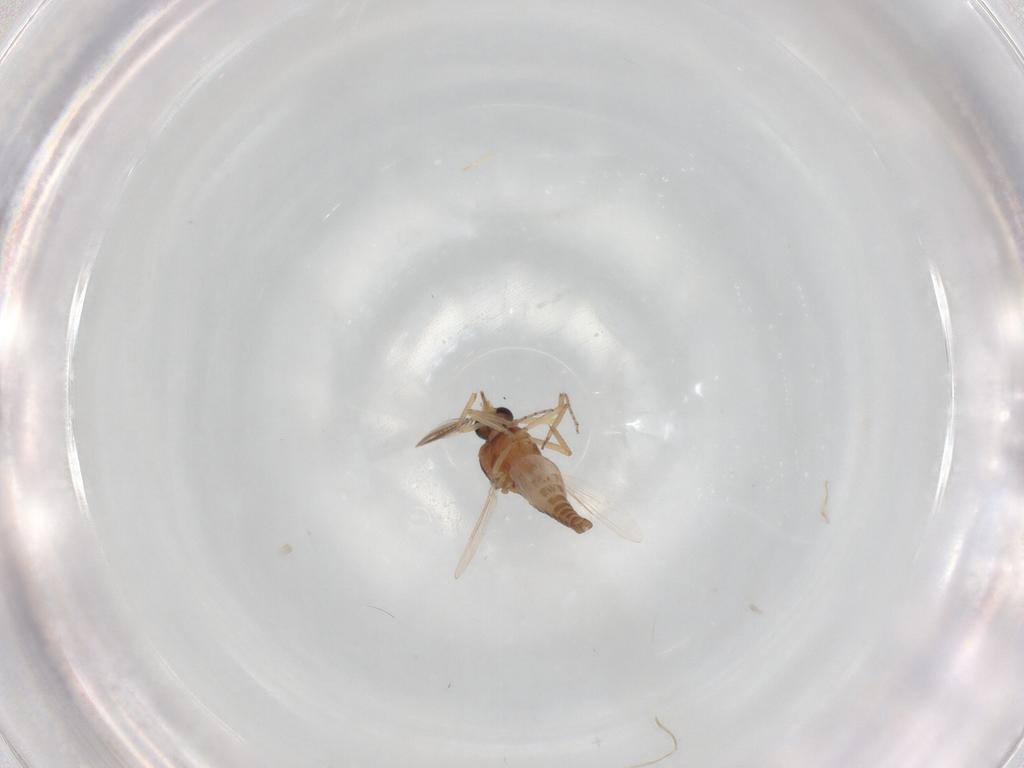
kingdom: Animalia
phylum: Arthropoda
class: Insecta
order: Diptera
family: Ceratopogonidae
